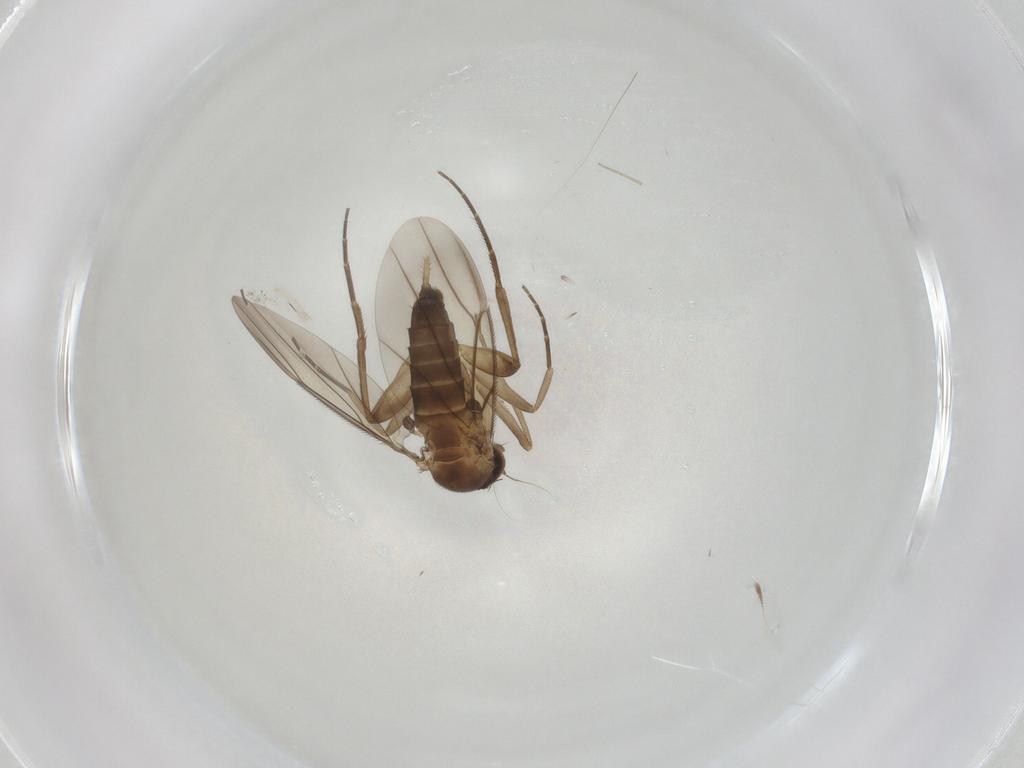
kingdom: Animalia
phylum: Arthropoda
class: Insecta
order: Diptera
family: Phoridae
